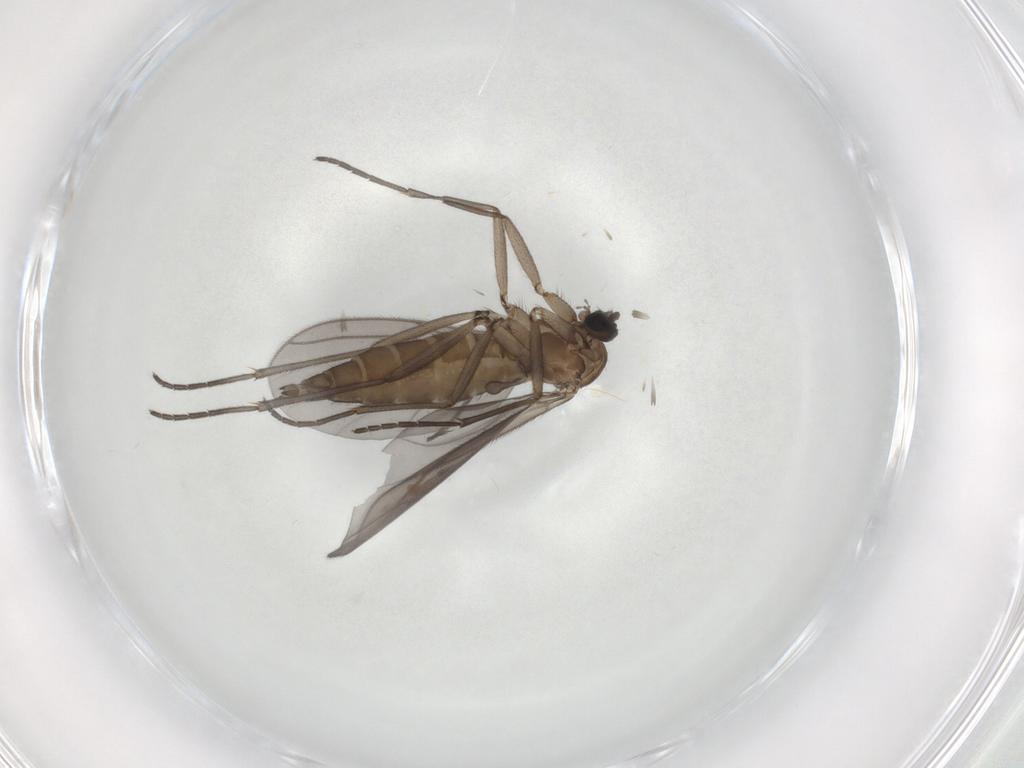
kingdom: Animalia
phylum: Arthropoda
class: Insecta
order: Diptera
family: Sciaridae
